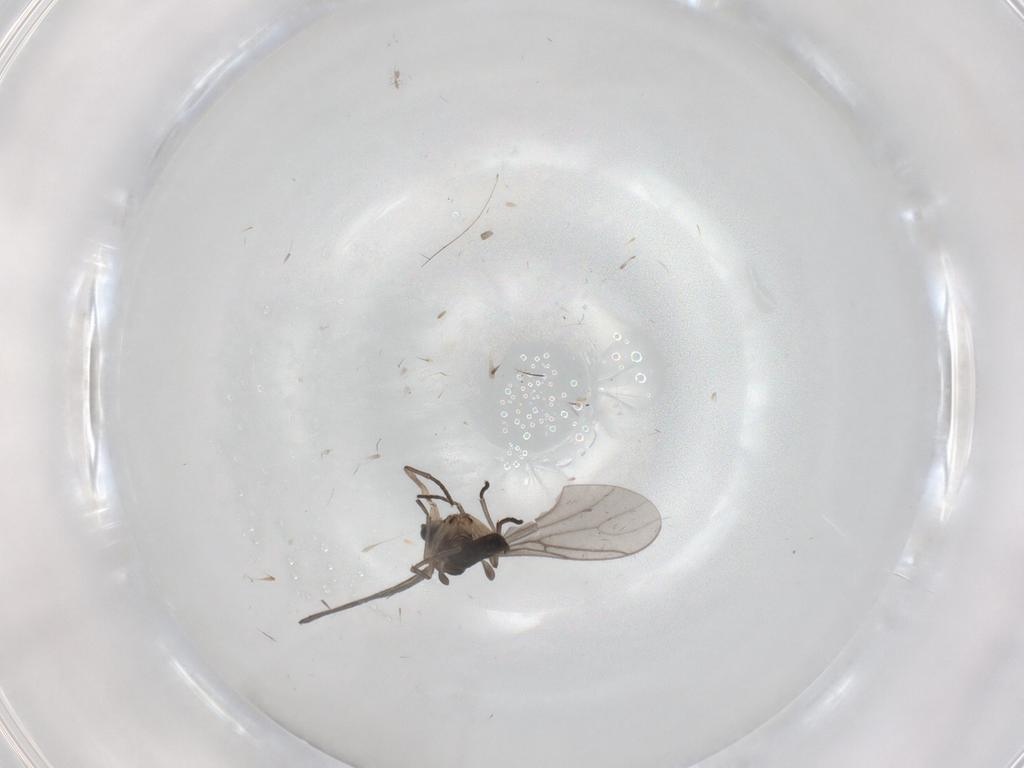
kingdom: Animalia
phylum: Arthropoda
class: Insecta
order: Diptera
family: Sciaridae
